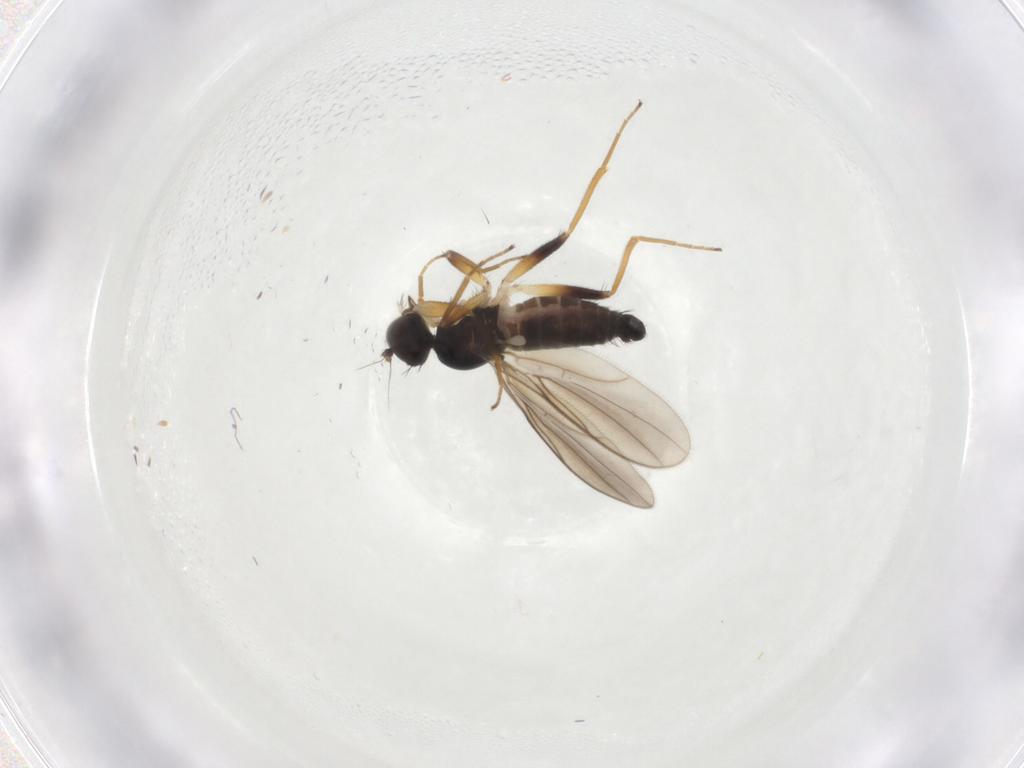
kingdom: Animalia
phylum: Arthropoda
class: Insecta
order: Diptera
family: Hybotidae
